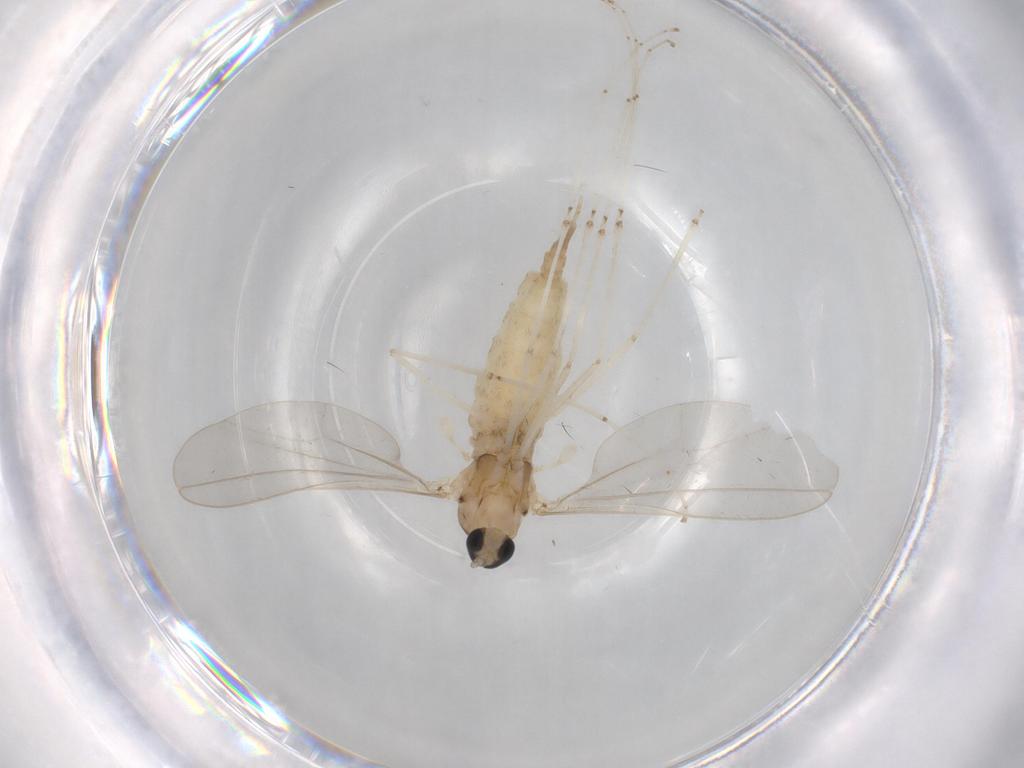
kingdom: Animalia
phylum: Arthropoda
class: Insecta
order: Diptera
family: Cecidomyiidae
